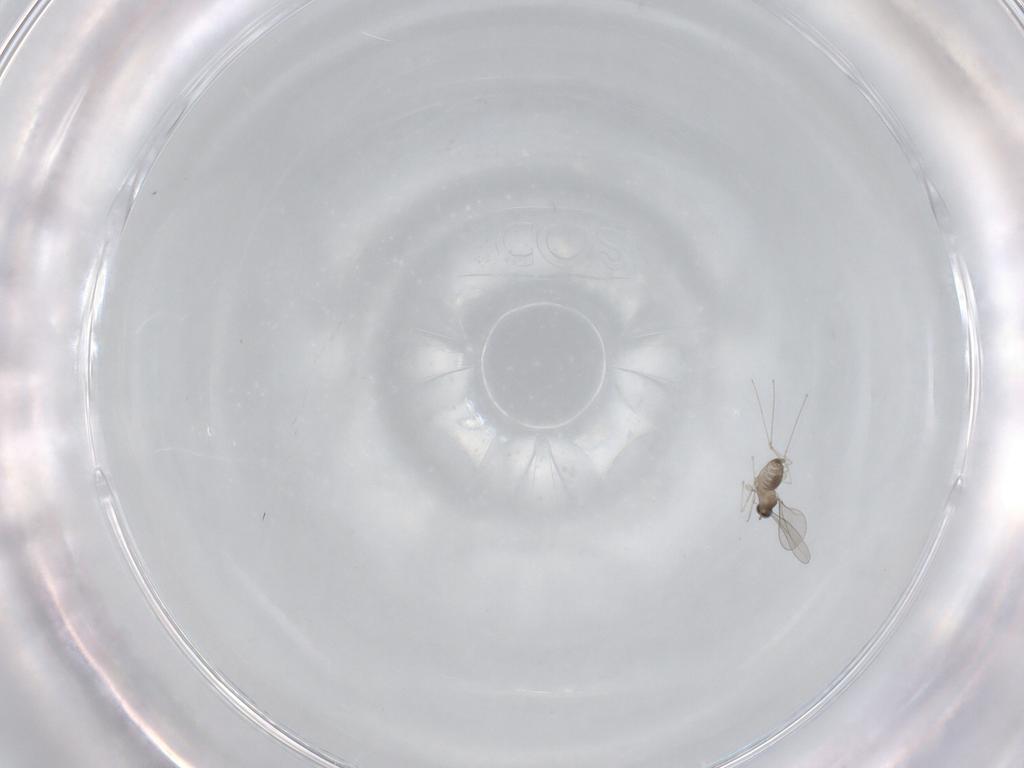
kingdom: Animalia
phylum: Arthropoda
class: Insecta
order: Diptera
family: Cecidomyiidae
